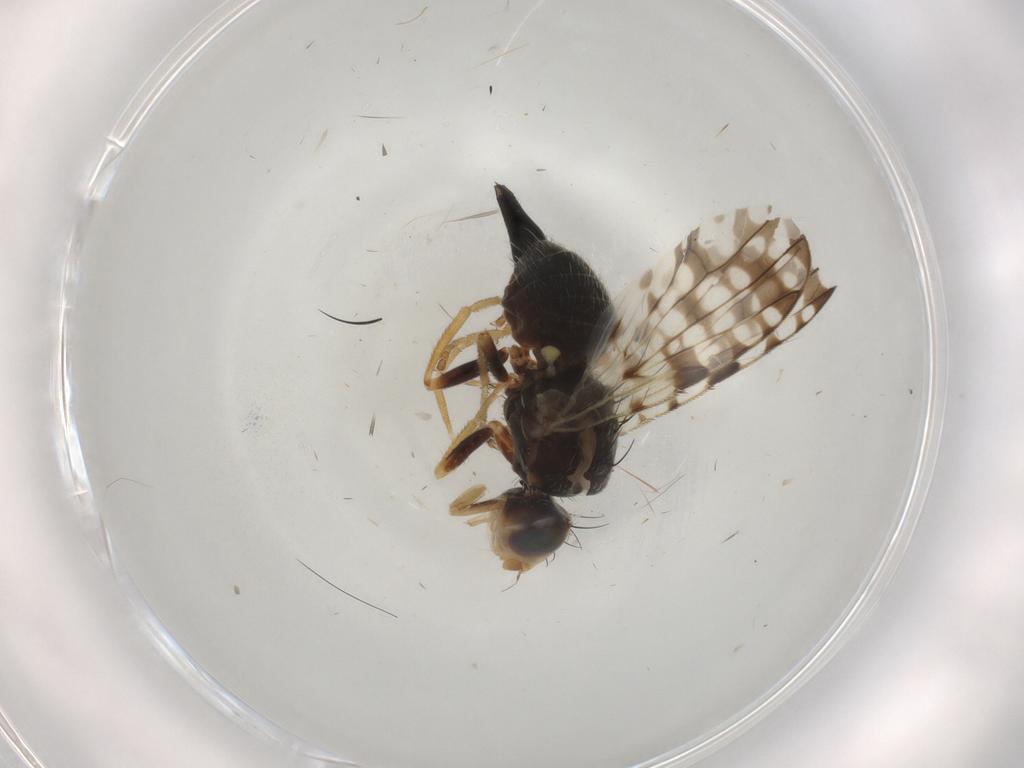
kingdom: Animalia
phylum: Arthropoda
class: Insecta
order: Diptera
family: Tephritidae
